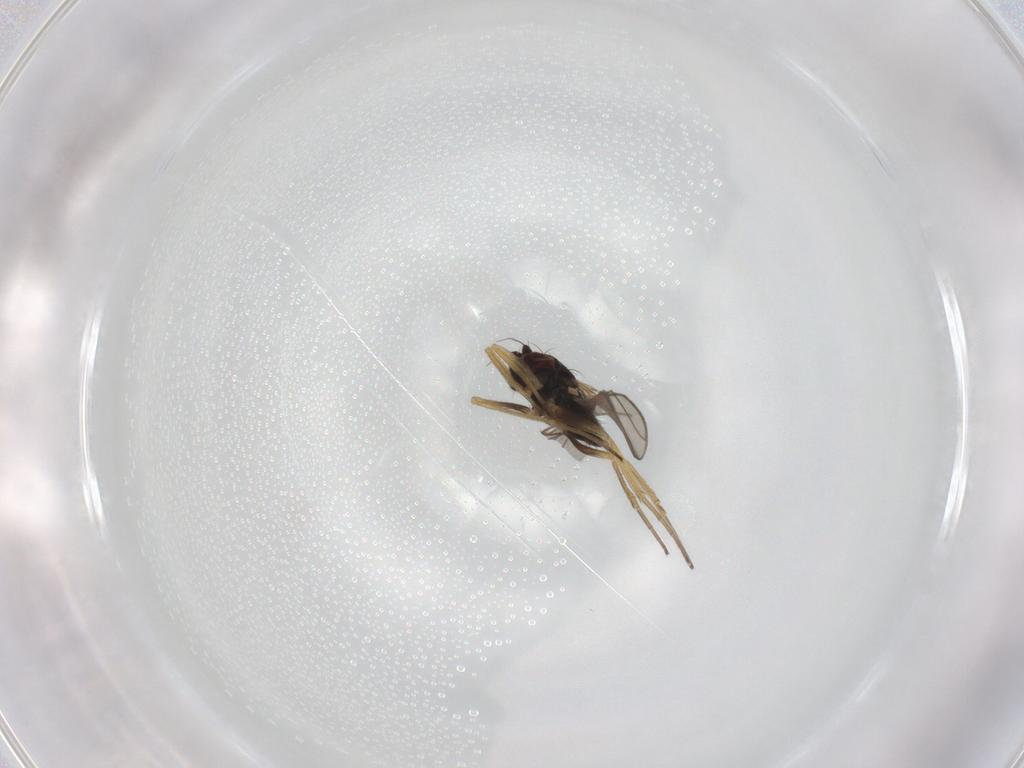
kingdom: Animalia
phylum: Arthropoda
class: Insecta
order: Diptera
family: Dolichopodidae
